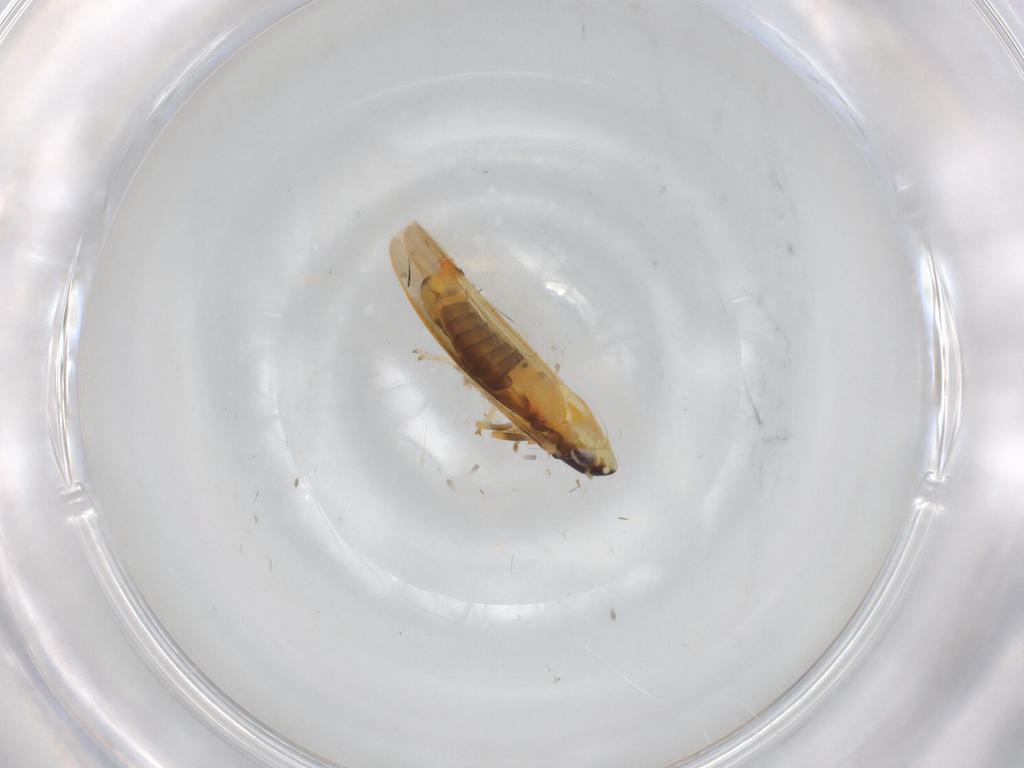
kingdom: Animalia
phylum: Arthropoda
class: Insecta
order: Hemiptera
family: Cicadellidae
